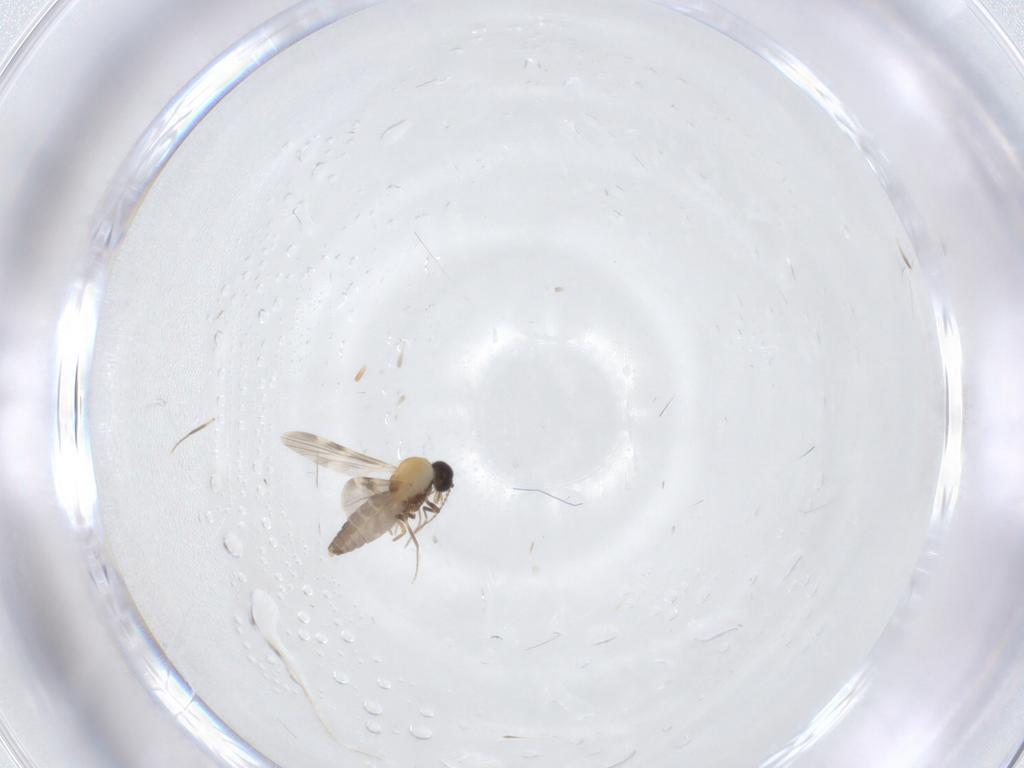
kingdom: Animalia
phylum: Arthropoda
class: Insecta
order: Diptera
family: Ceratopogonidae
